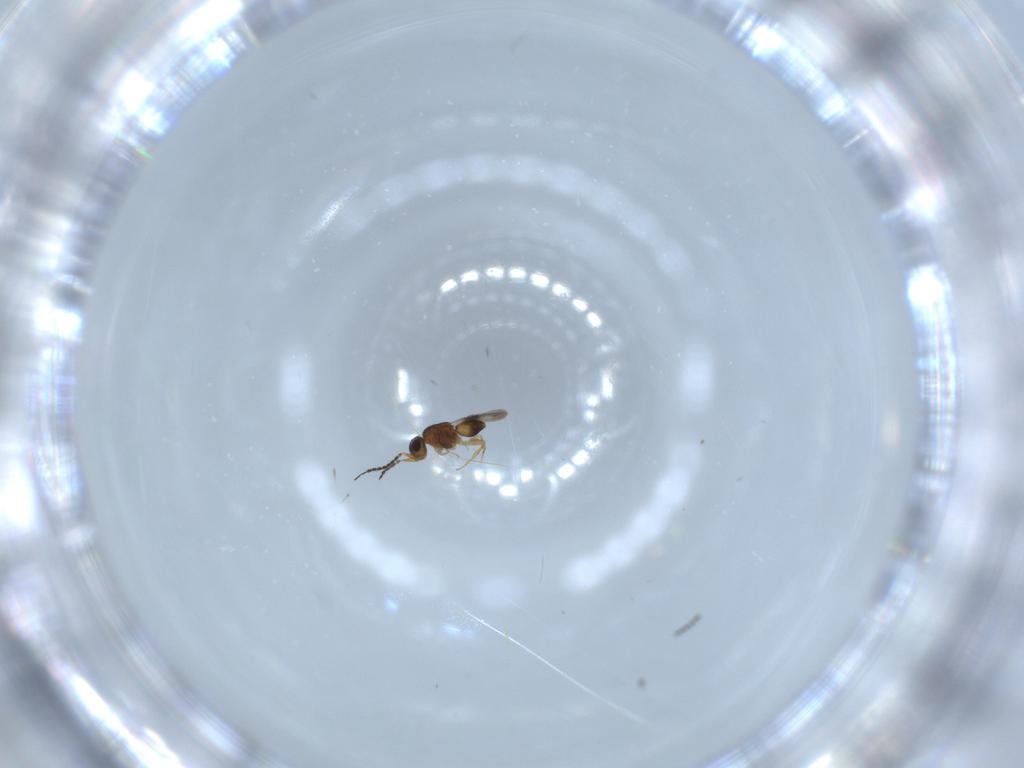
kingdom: Animalia
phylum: Arthropoda
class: Insecta
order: Hymenoptera
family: Ceraphronidae
